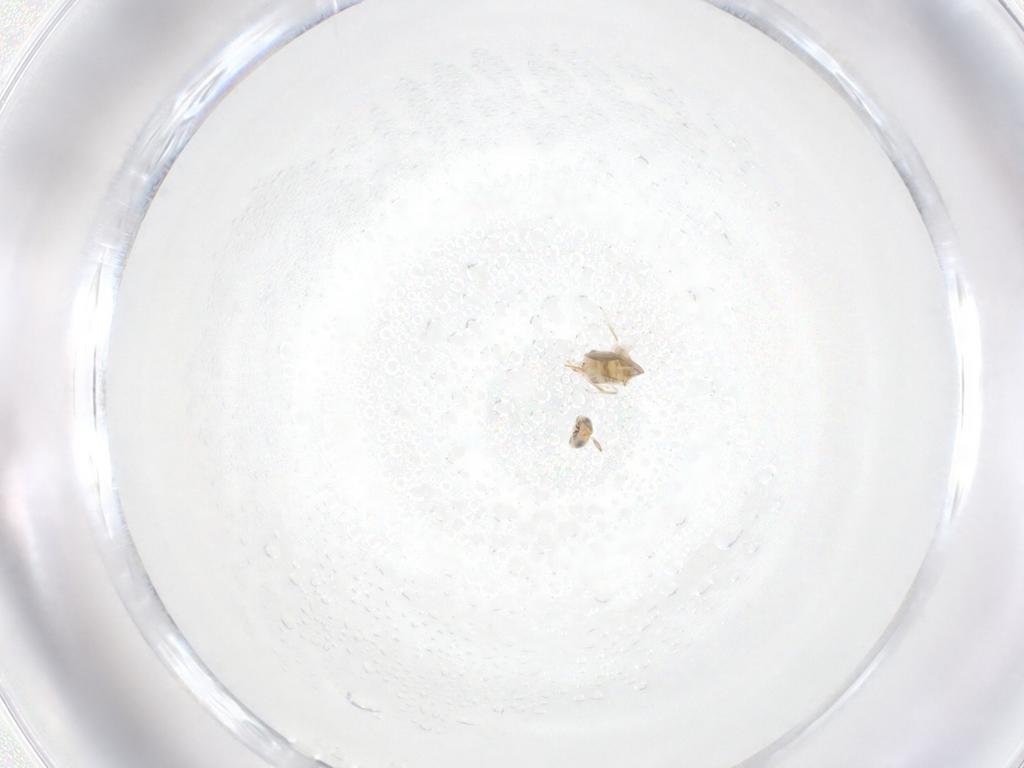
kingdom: Animalia
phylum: Arthropoda
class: Insecta
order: Hymenoptera
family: Aphelinidae
